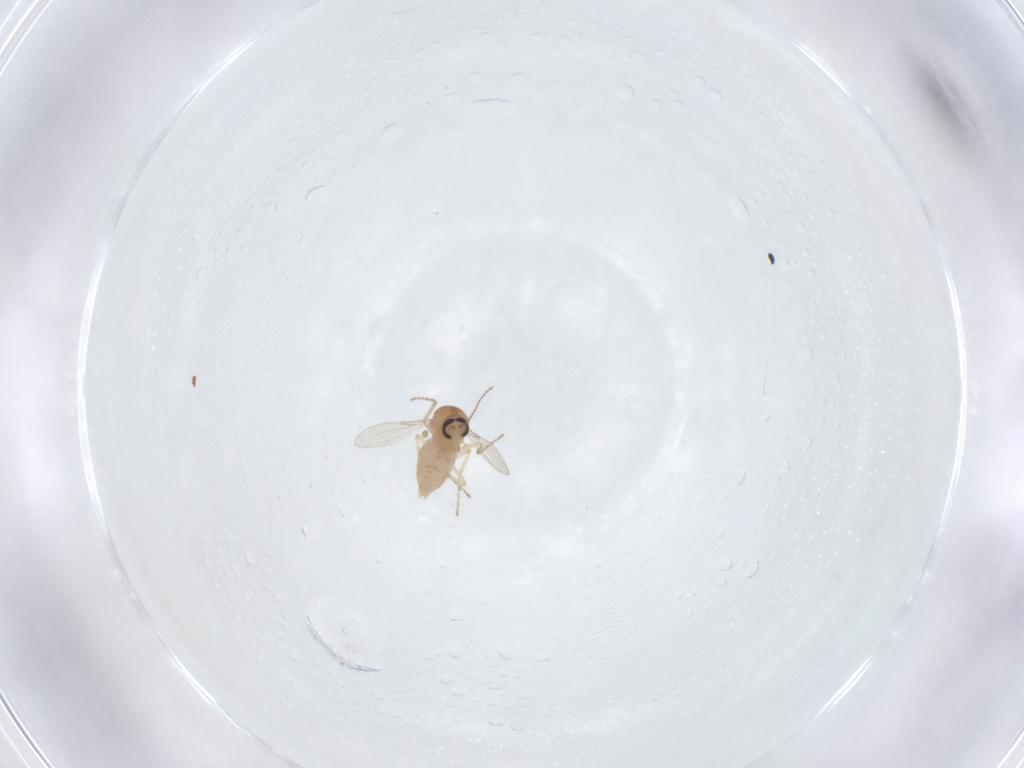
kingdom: Animalia
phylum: Arthropoda
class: Insecta
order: Diptera
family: Ceratopogonidae
